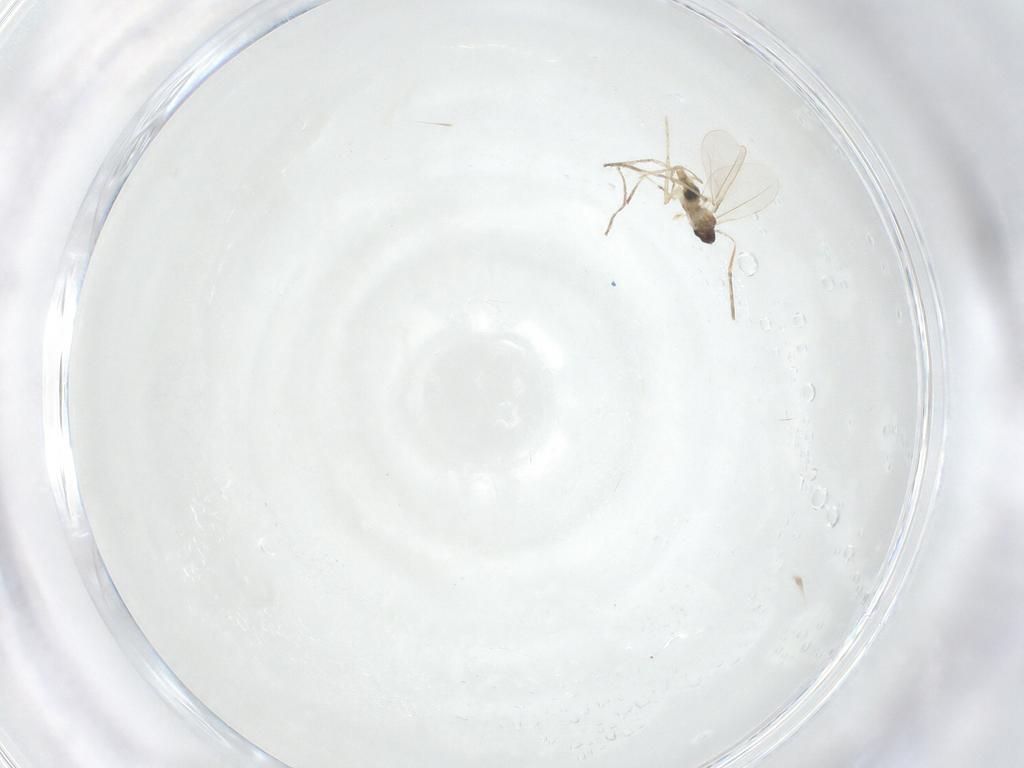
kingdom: Animalia
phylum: Arthropoda
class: Insecta
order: Diptera
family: Cecidomyiidae
